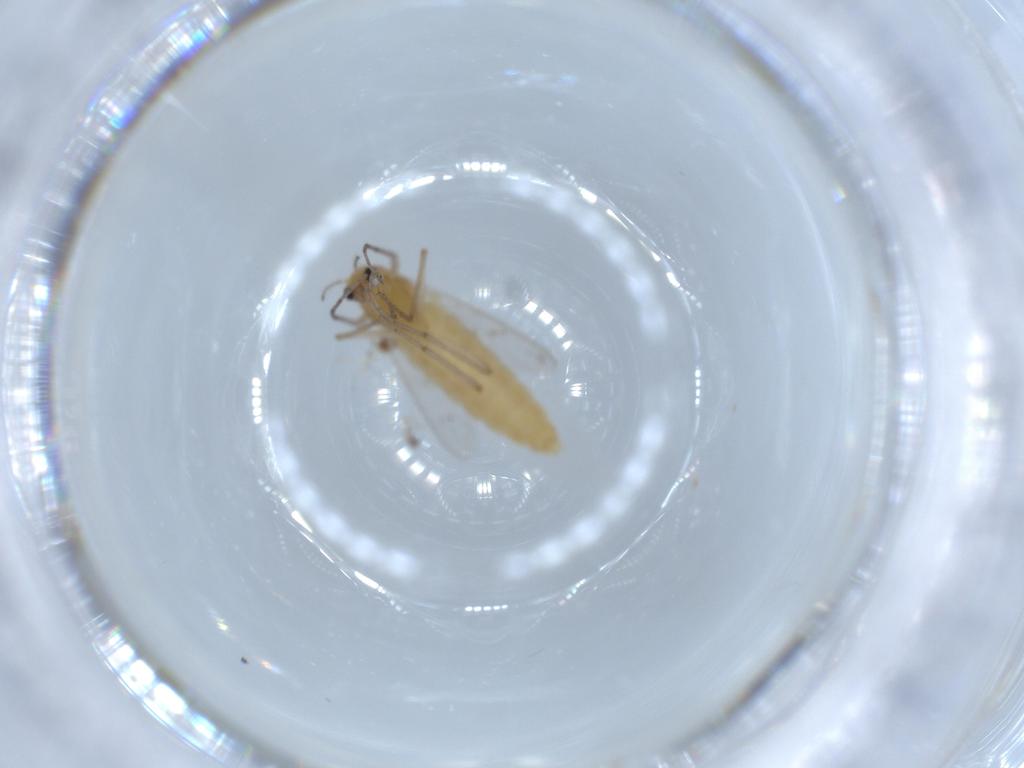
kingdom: Animalia
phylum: Arthropoda
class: Insecta
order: Diptera
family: Chironomidae
